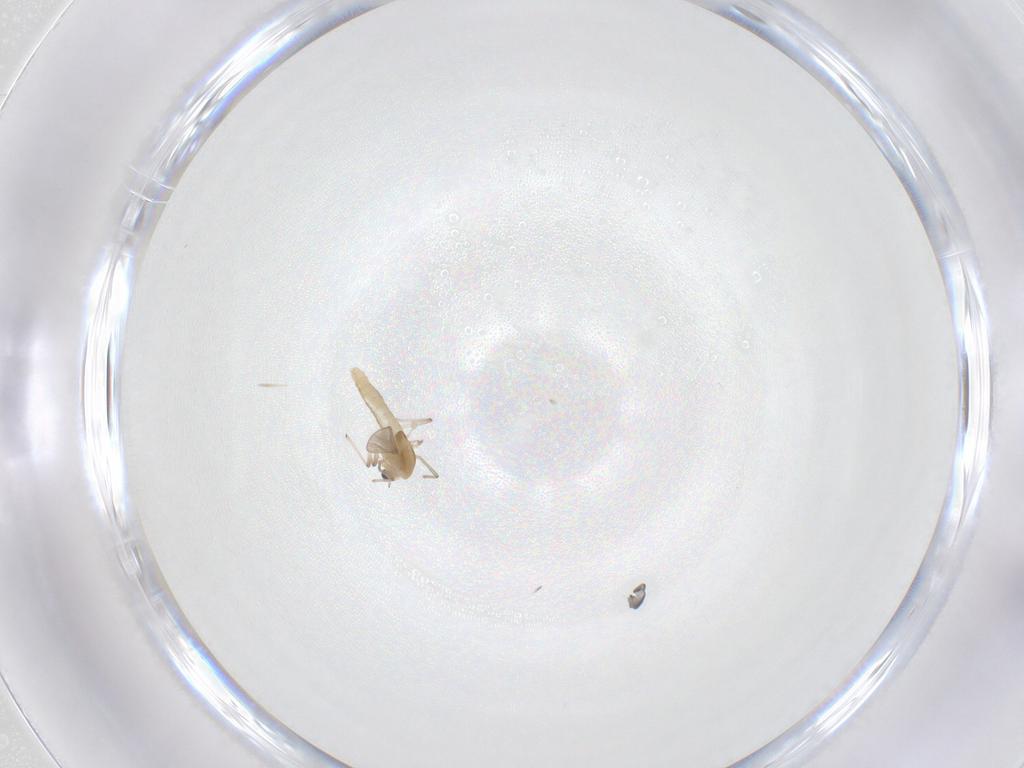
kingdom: Animalia
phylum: Arthropoda
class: Insecta
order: Diptera
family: Chironomidae
